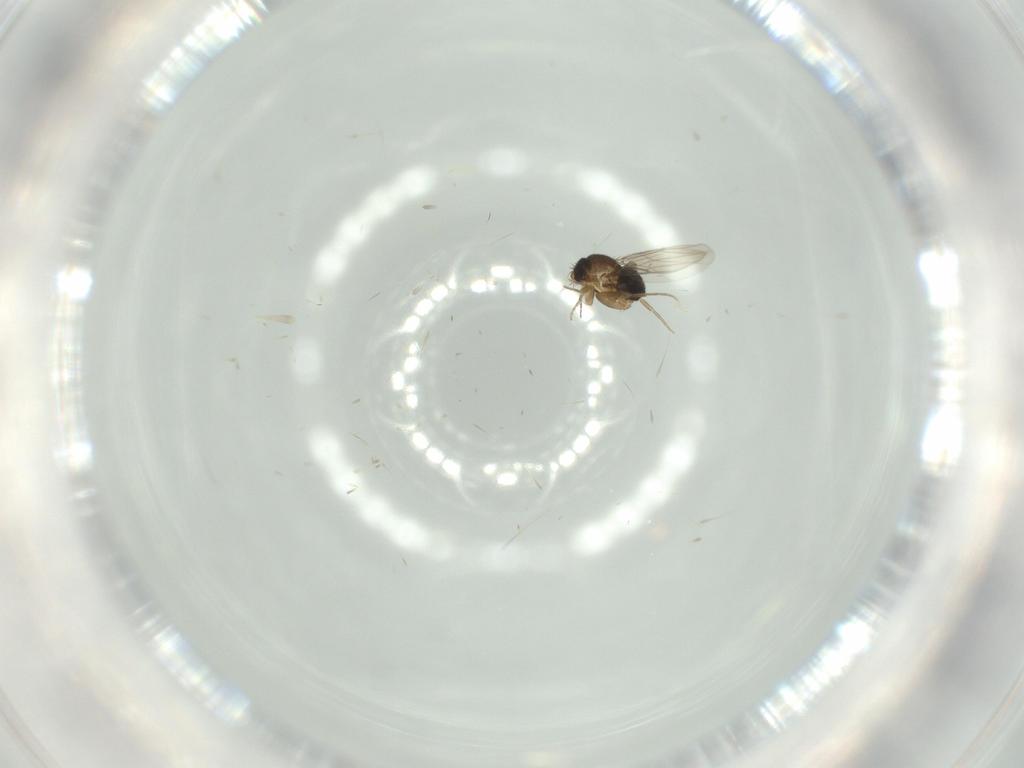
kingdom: Animalia
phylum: Arthropoda
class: Insecta
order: Diptera
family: Phoridae
